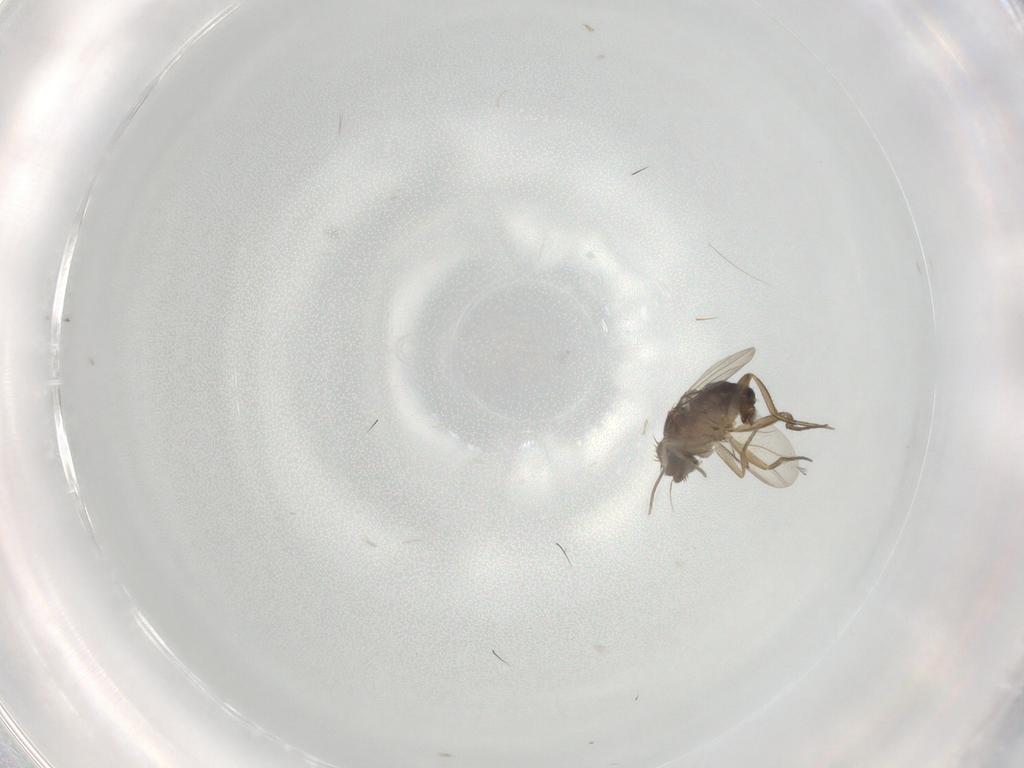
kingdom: Animalia
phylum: Arthropoda
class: Insecta
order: Diptera
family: Phoridae
